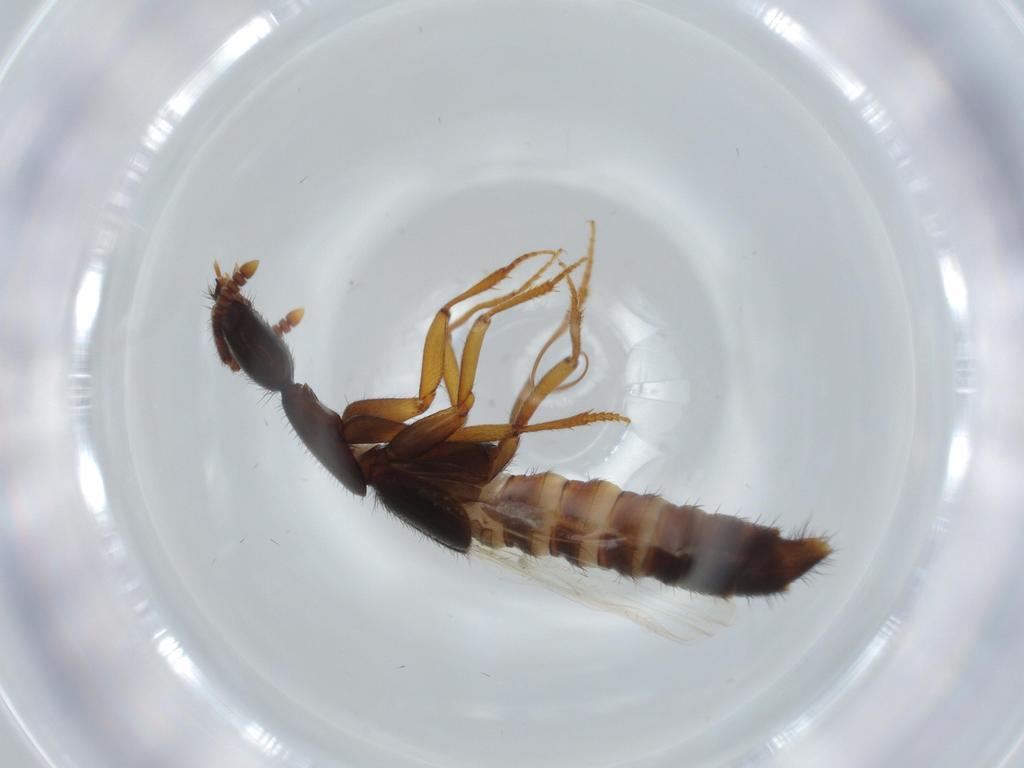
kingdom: Animalia
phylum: Arthropoda
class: Insecta
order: Coleoptera
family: Staphylinidae
